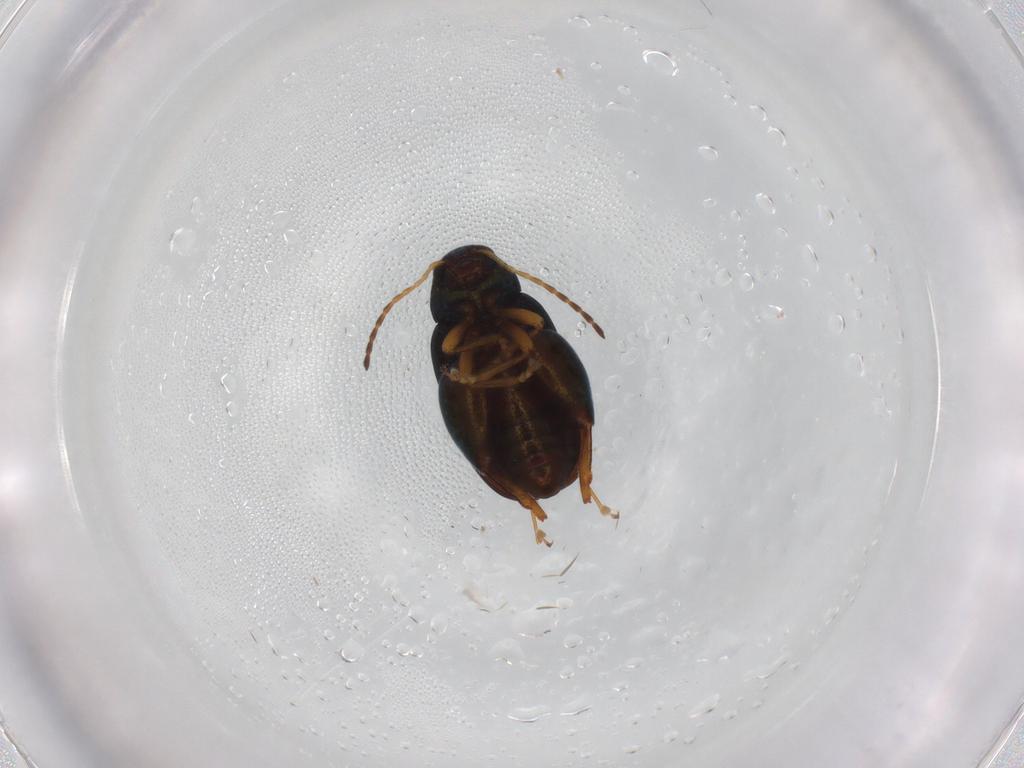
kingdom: Animalia
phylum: Arthropoda
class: Insecta
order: Coleoptera
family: Chrysomelidae
